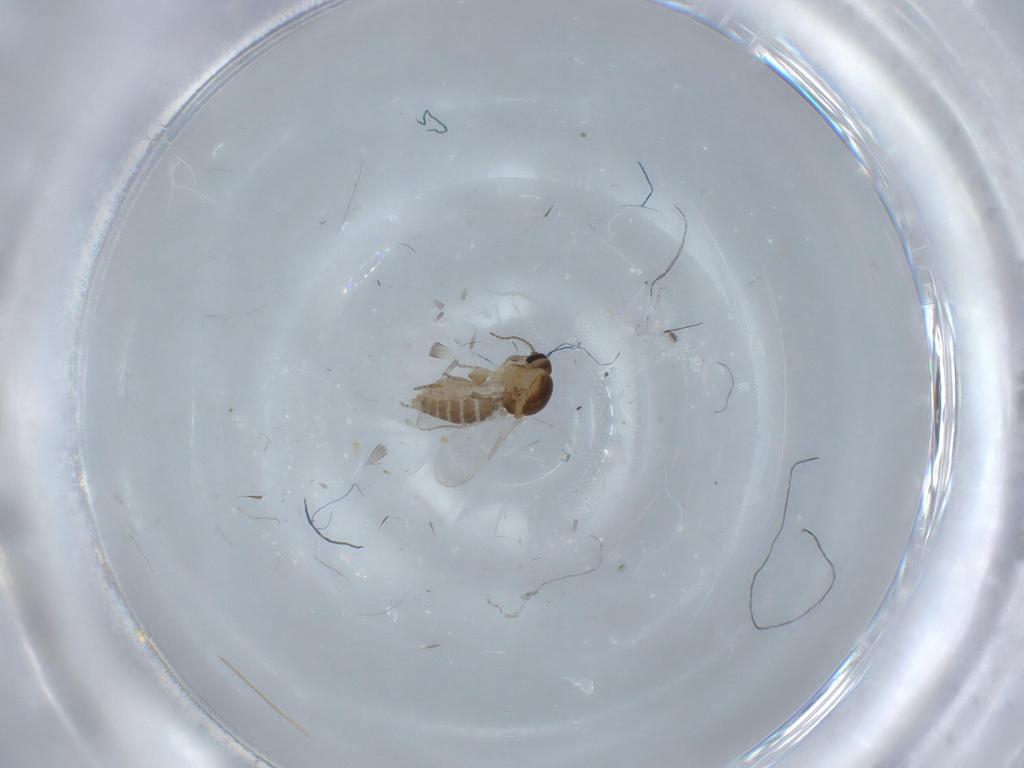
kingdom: Animalia
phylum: Arthropoda
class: Insecta
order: Diptera
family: Ceratopogonidae
